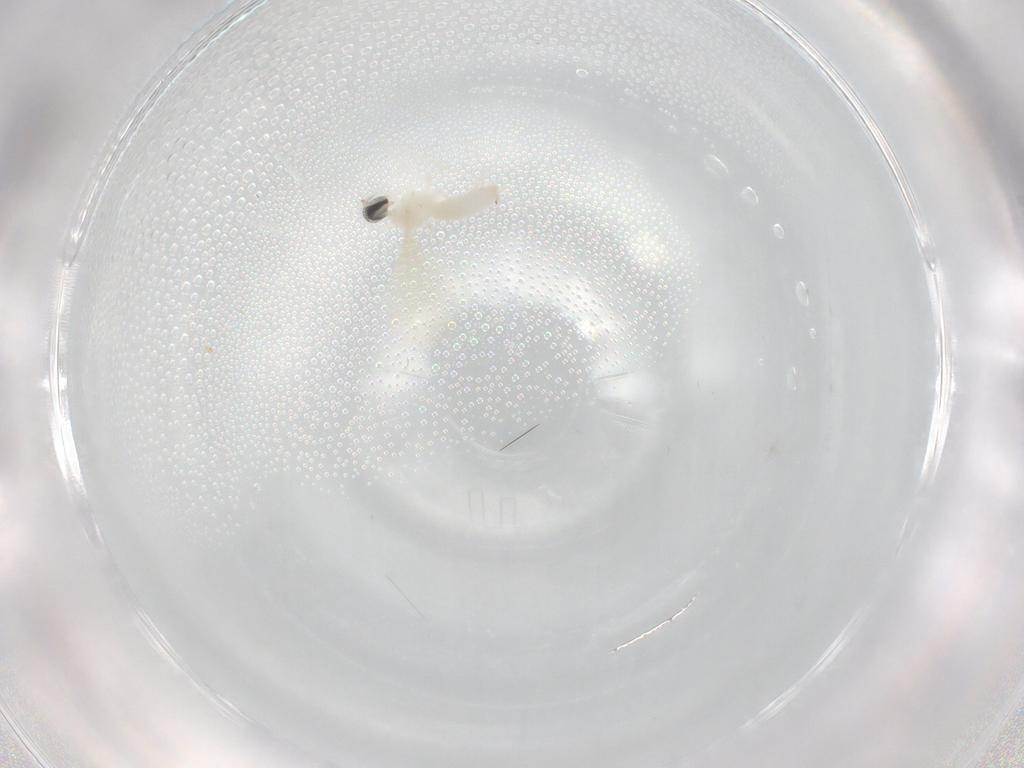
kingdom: Animalia
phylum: Arthropoda
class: Insecta
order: Diptera
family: Cecidomyiidae
